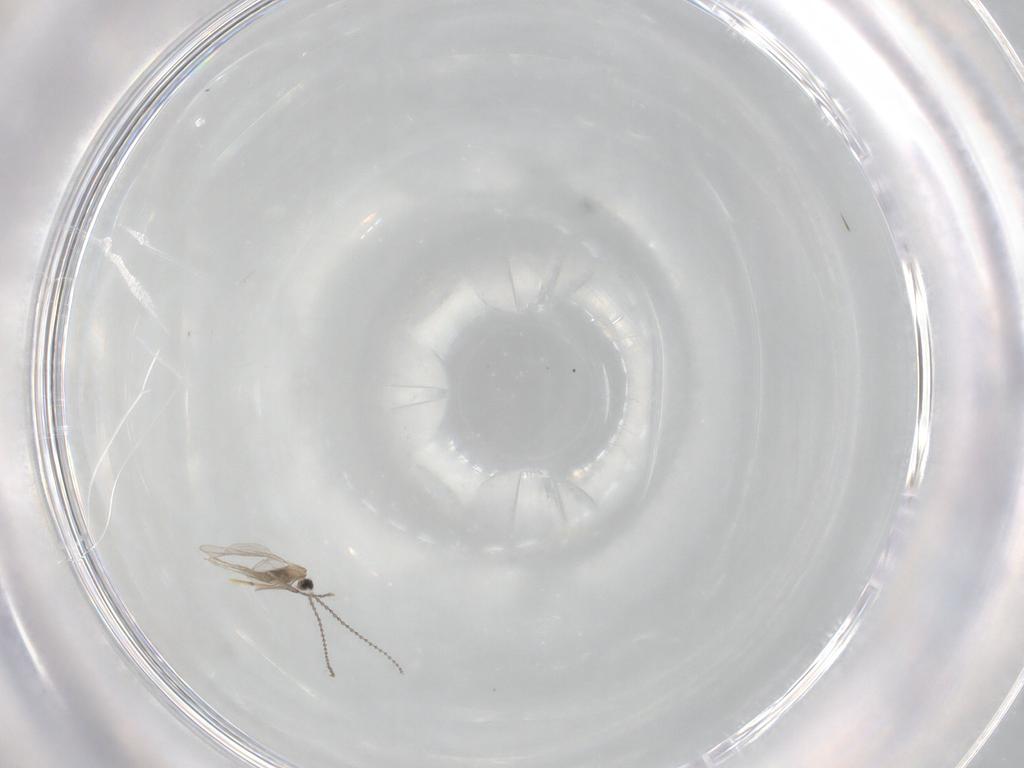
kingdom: Animalia
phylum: Arthropoda
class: Insecta
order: Diptera
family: Cecidomyiidae
